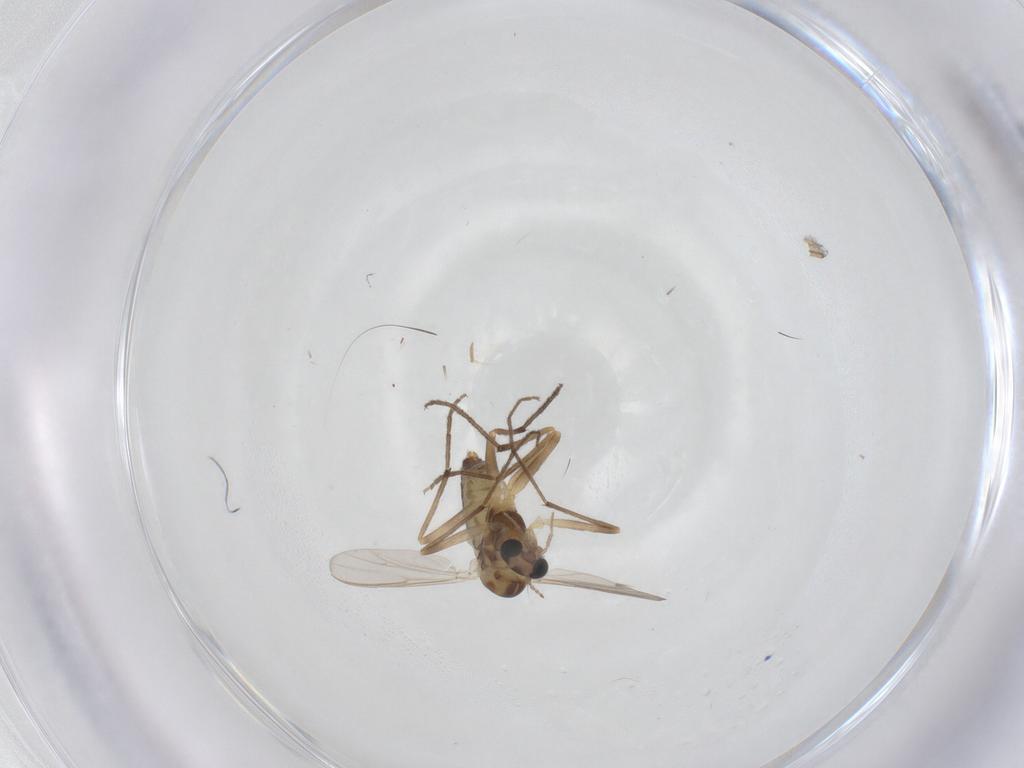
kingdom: Animalia
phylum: Arthropoda
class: Insecta
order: Diptera
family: Chironomidae
